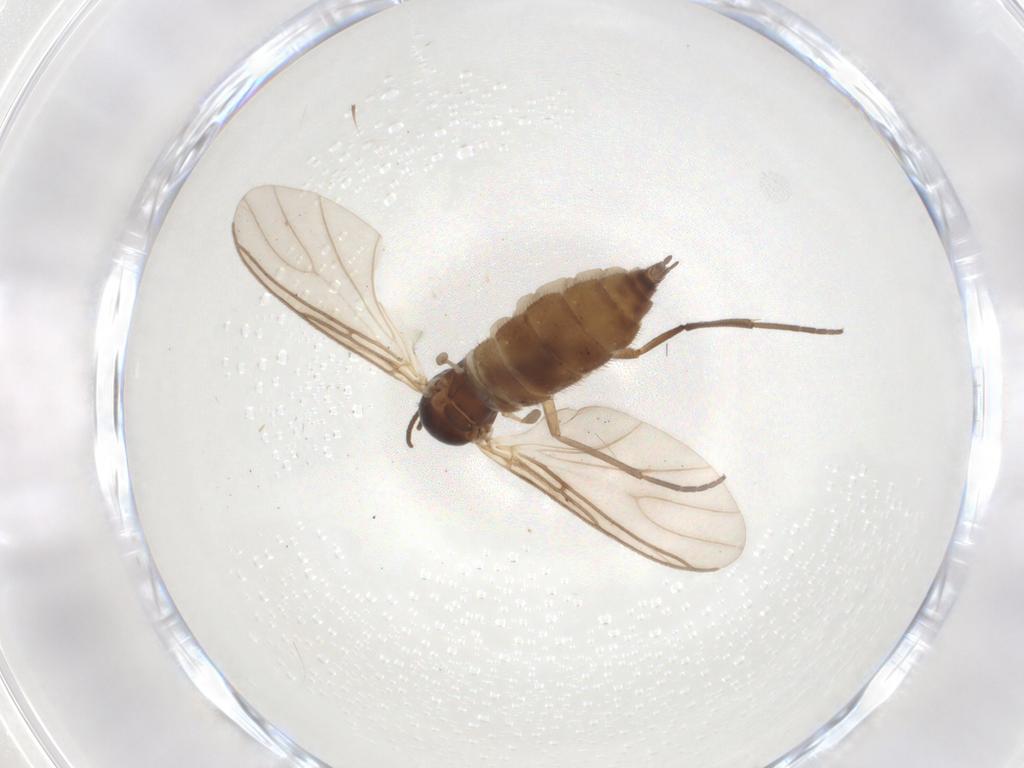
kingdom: Animalia
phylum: Arthropoda
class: Insecta
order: Diptera
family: Sciaridae
